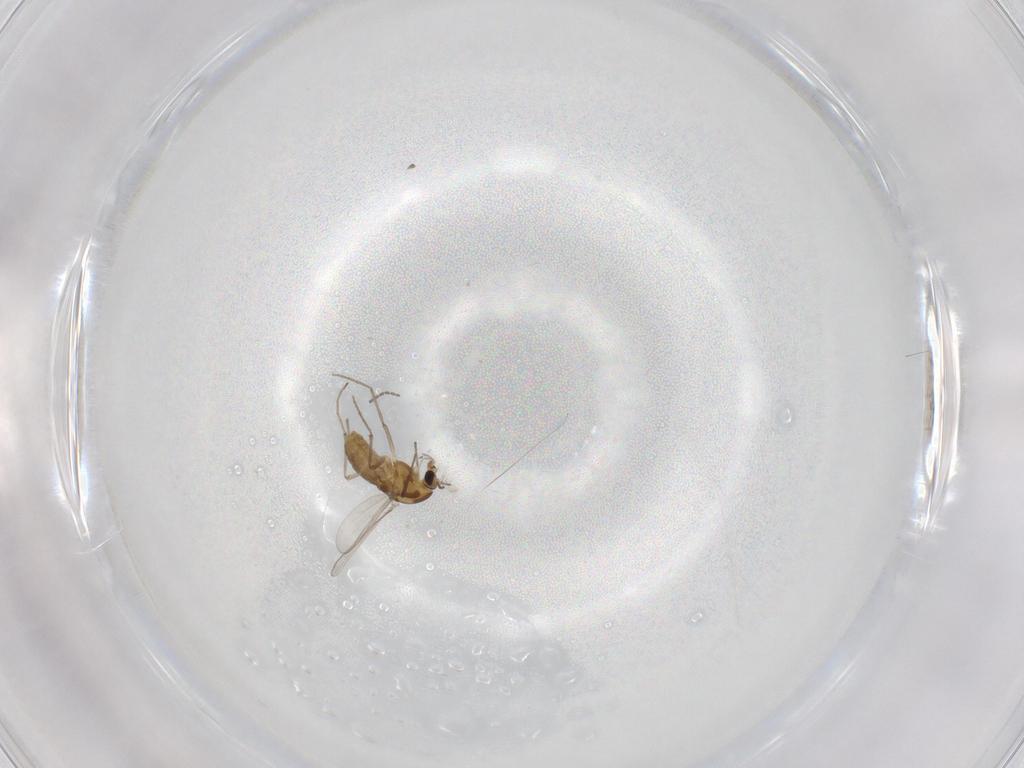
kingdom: Animalia
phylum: Arthropoda
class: Insecta
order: Diptera
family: Chironomidae
